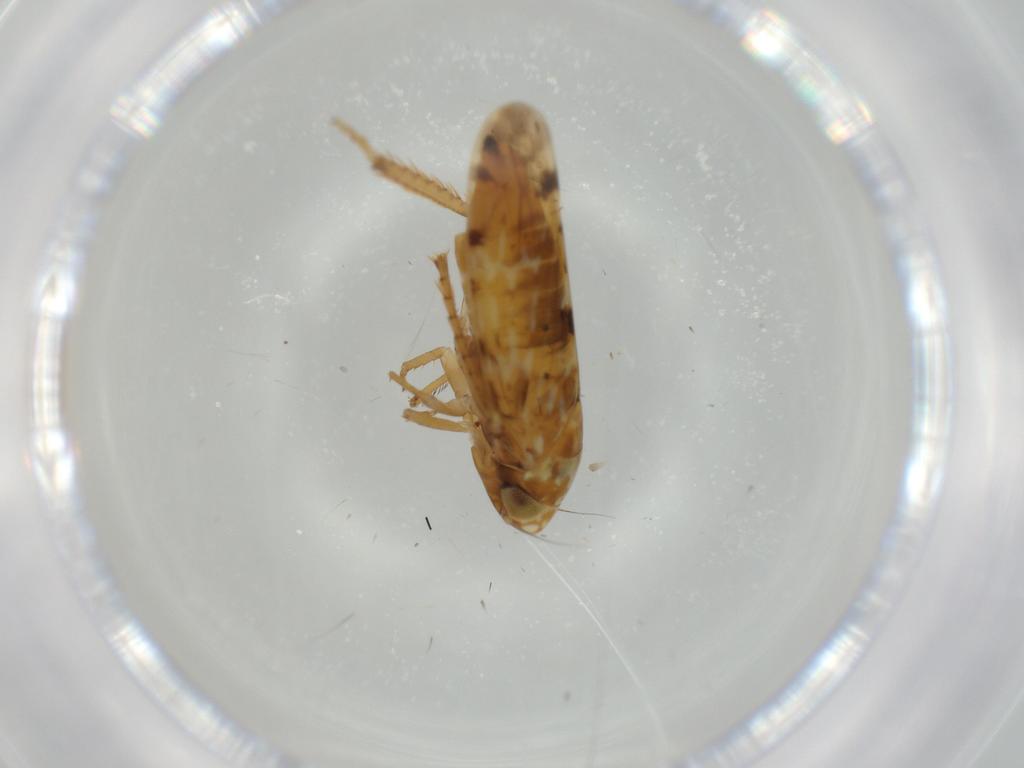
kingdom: Animalia
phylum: Arthropoda
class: Insecta
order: Hemiptera
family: Cicadellidae
